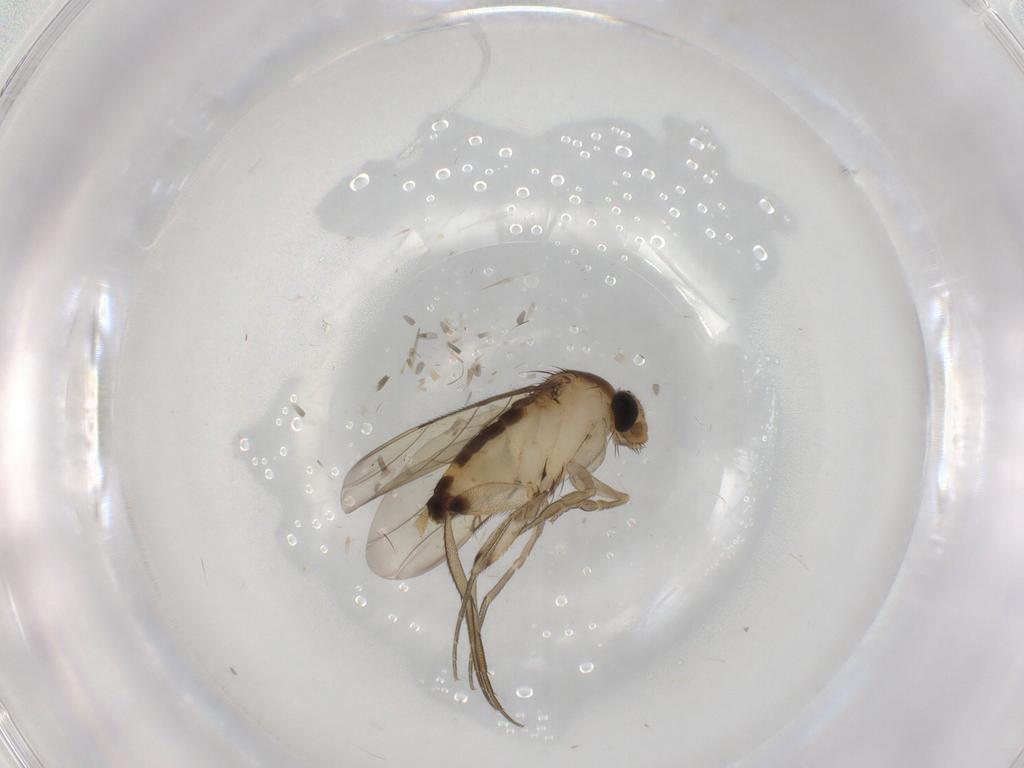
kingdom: Animalia
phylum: Arthropoda
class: Insecta
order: Diptera
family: Phoridae
